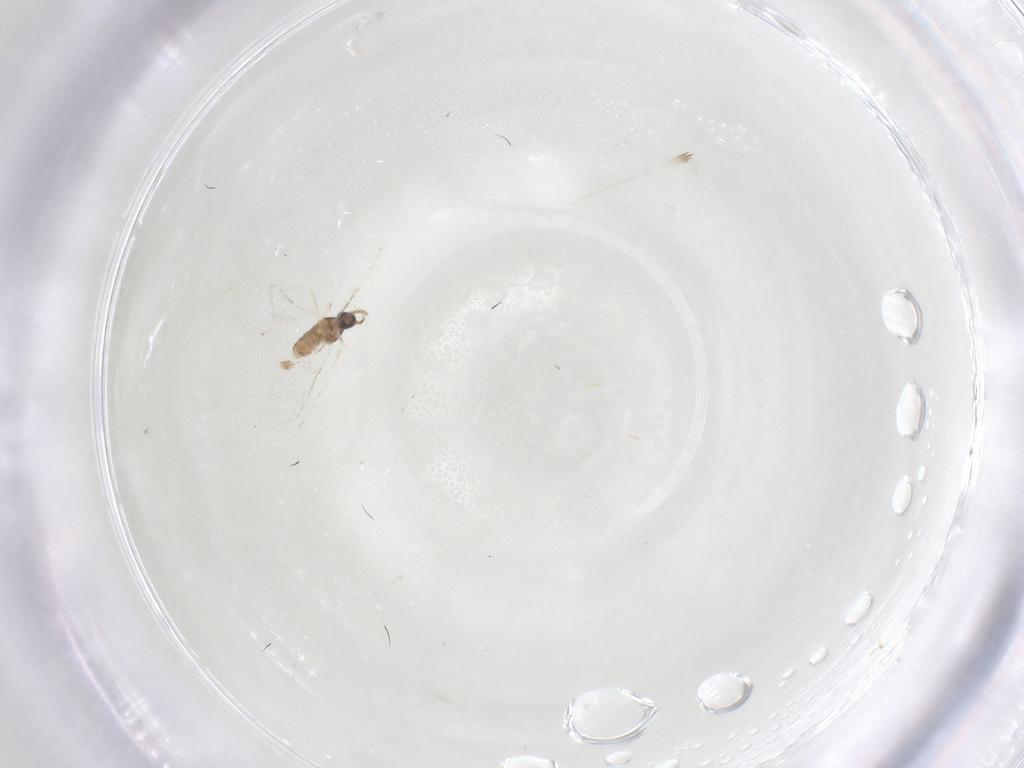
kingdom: Animalia
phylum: Arthropoda
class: Insecta
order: Diptera
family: Cecidomyiidae
